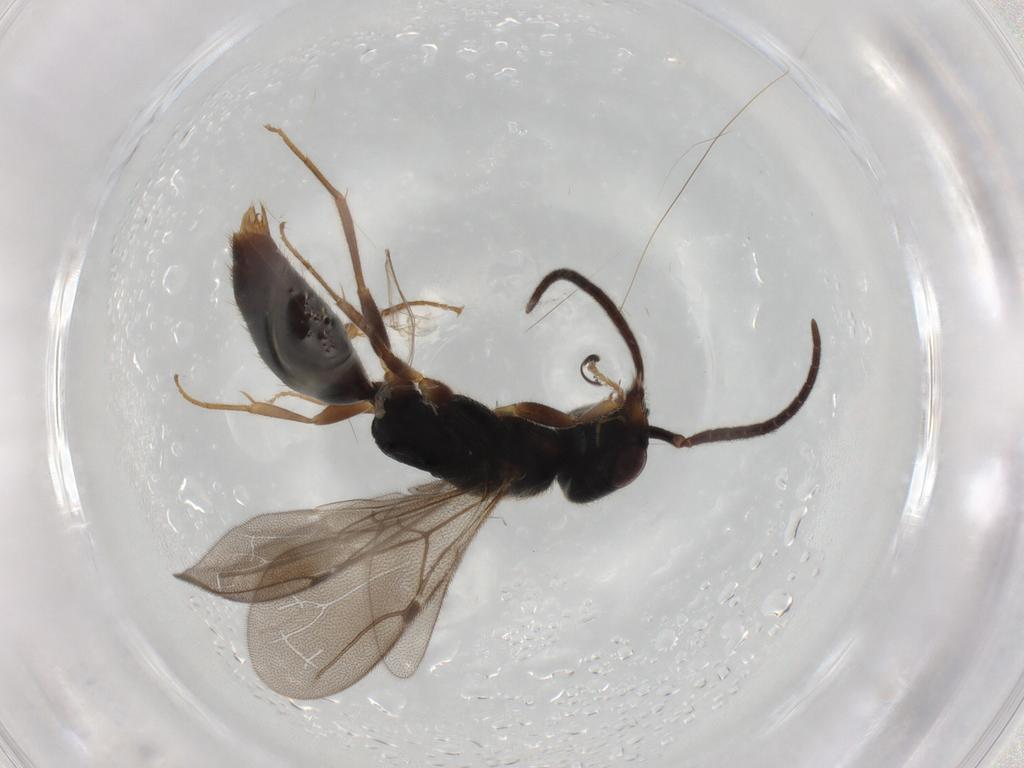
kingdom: Animalia
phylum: Arthropoda
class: Insecta
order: Hymenoptera
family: Bethylidae
